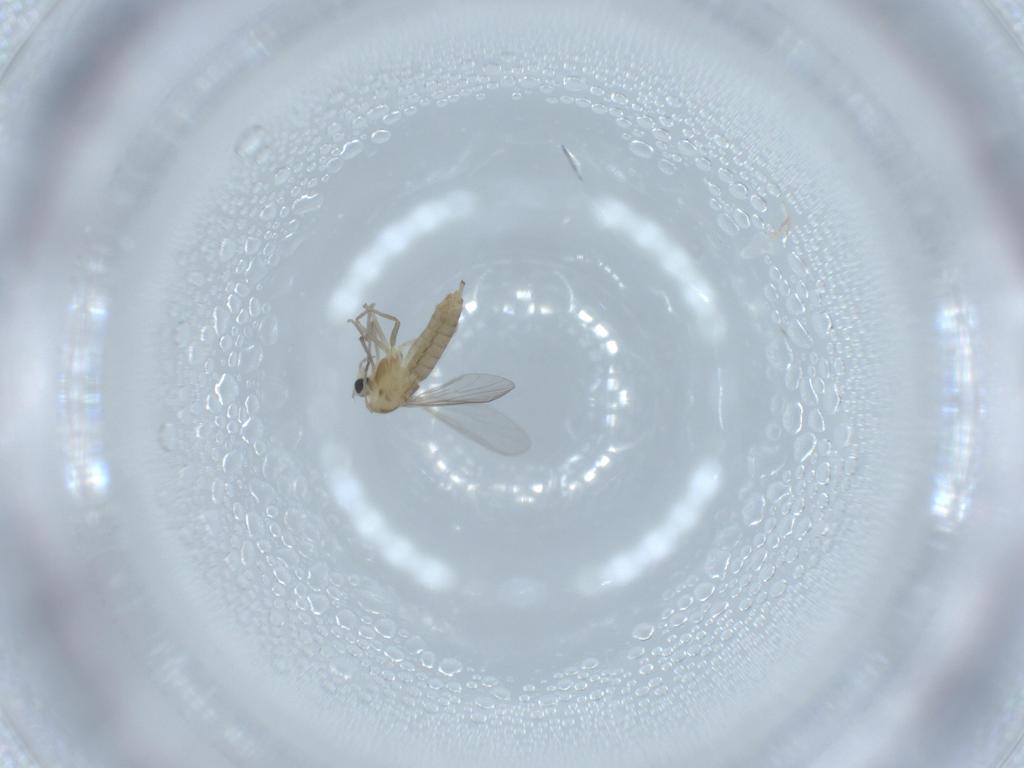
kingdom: Animalia
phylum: Arthropoda
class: Insecta
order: Diptera
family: Chironomidae
